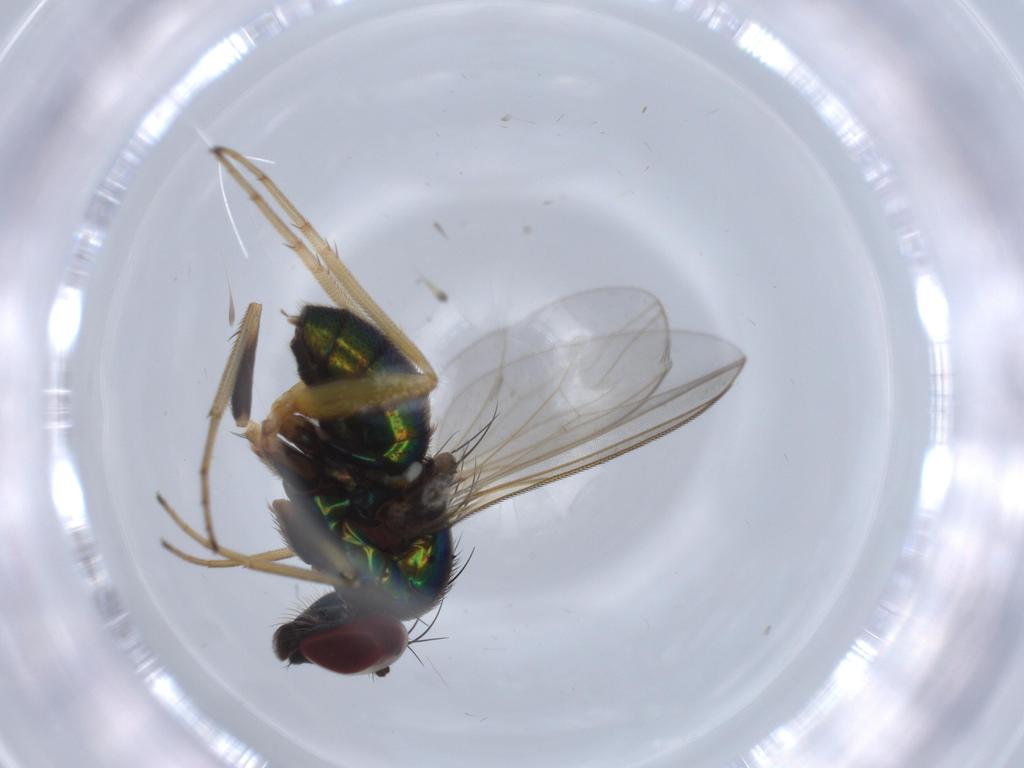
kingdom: Animalia
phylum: Arthropoda
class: Insecta
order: Diptera
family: Dolichopodidae
